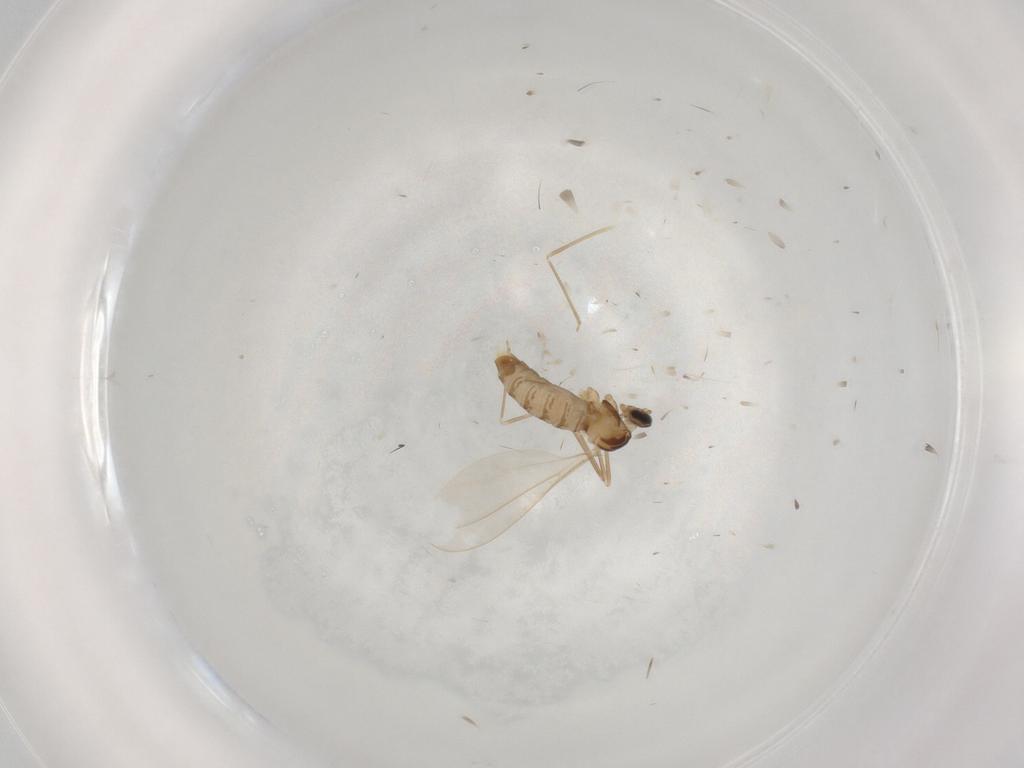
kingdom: Animalia
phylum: Arthropoda
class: Insecta
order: Diptera
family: Cecidomyiidae
